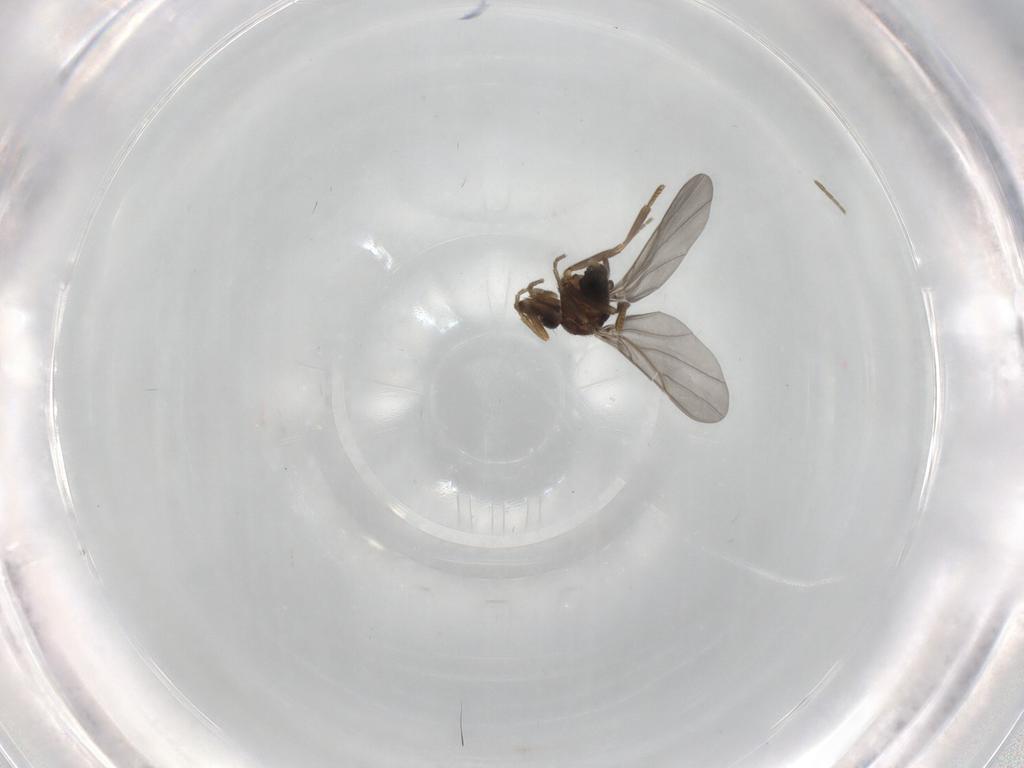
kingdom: Animalia
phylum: Arthropoda
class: Insecta
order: Diptera
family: Phoridae
